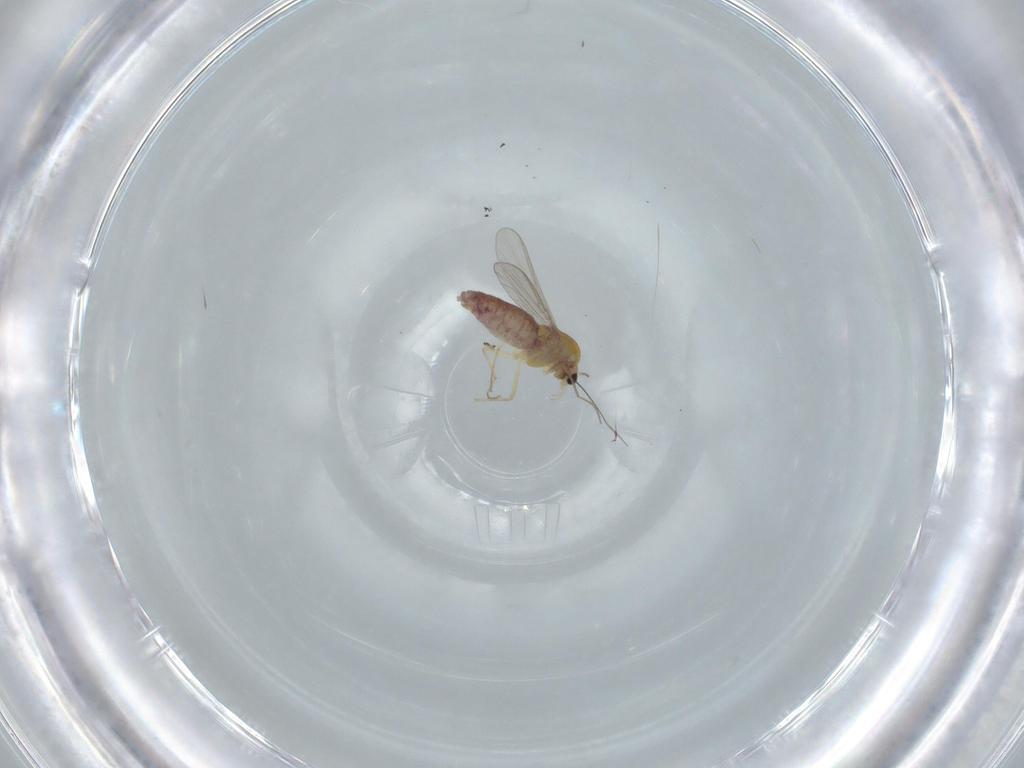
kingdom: Animalia
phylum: Arthropoda
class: Insecta
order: Diptera
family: Chironomidae
